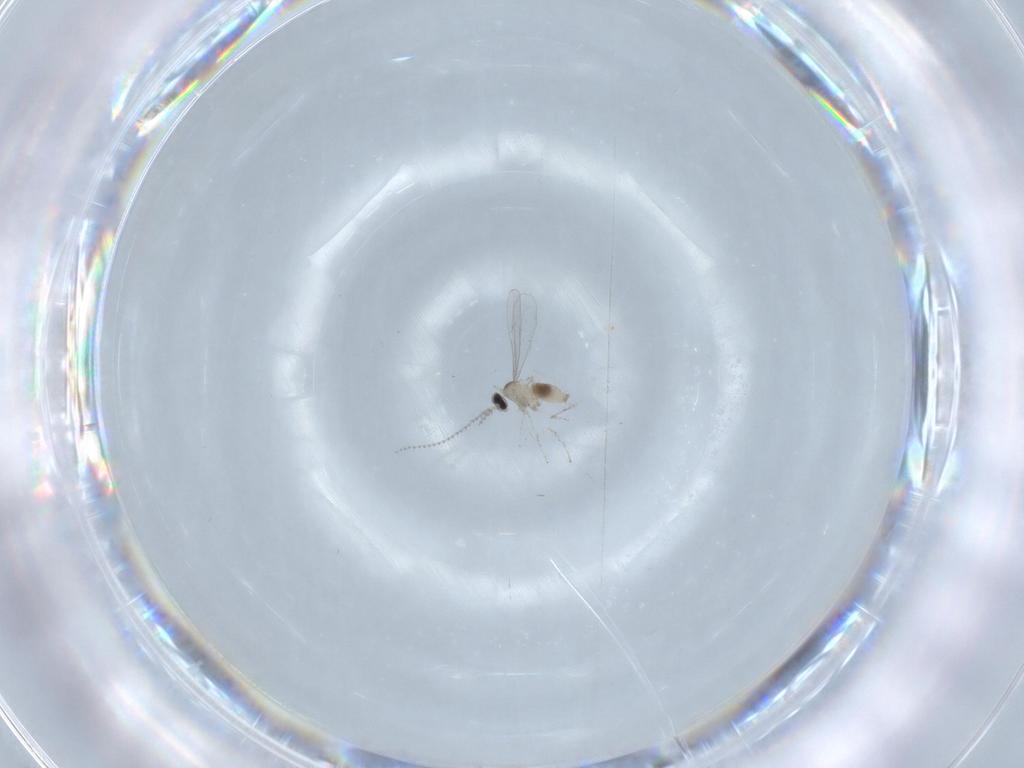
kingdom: Animalia
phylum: Arthropoda
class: Insecta
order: Diptera
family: Cecidomyiidae
